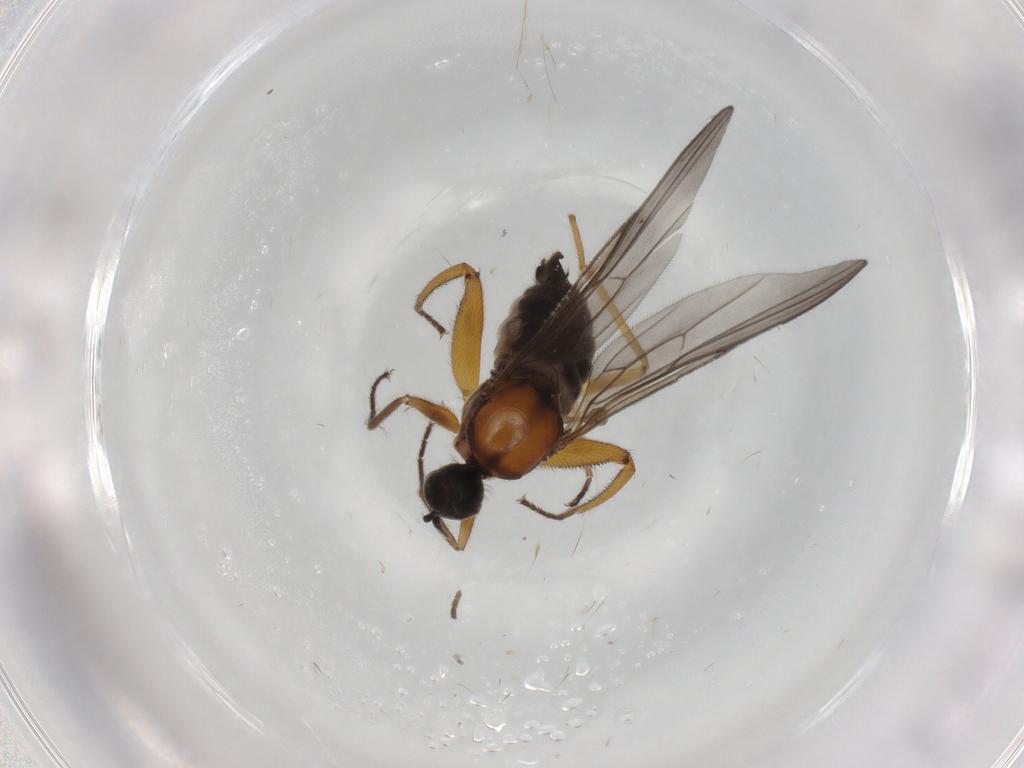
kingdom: Animalia
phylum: Arthropoda
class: Insecta
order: Diptera
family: Hybotidae
